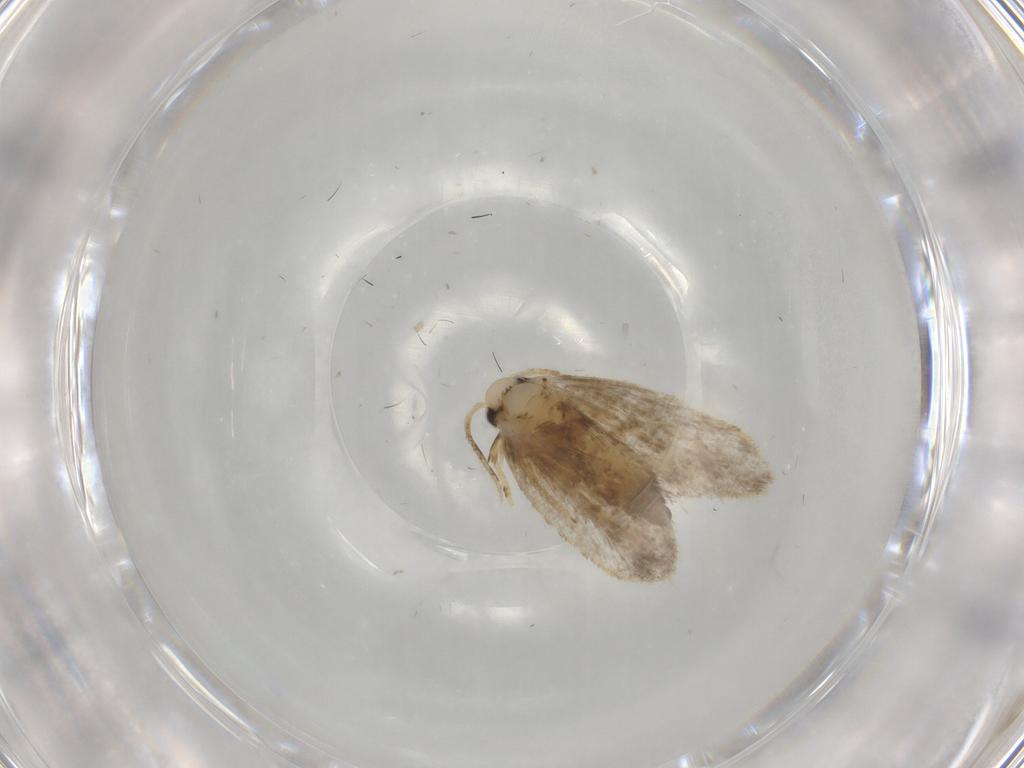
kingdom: Animalia
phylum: Arthropoda
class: Insecta
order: Lepidoptera
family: Psychidae
